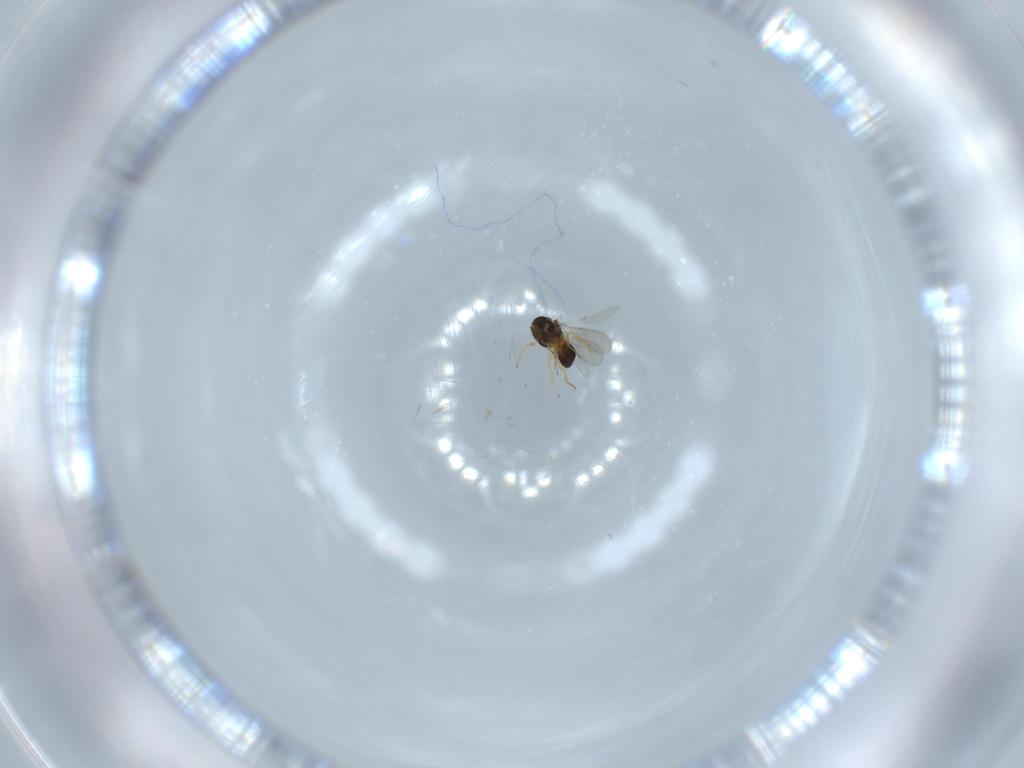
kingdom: Animalia
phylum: Arthropoda
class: Insecta
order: Hymenoptera
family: Scelionidae
